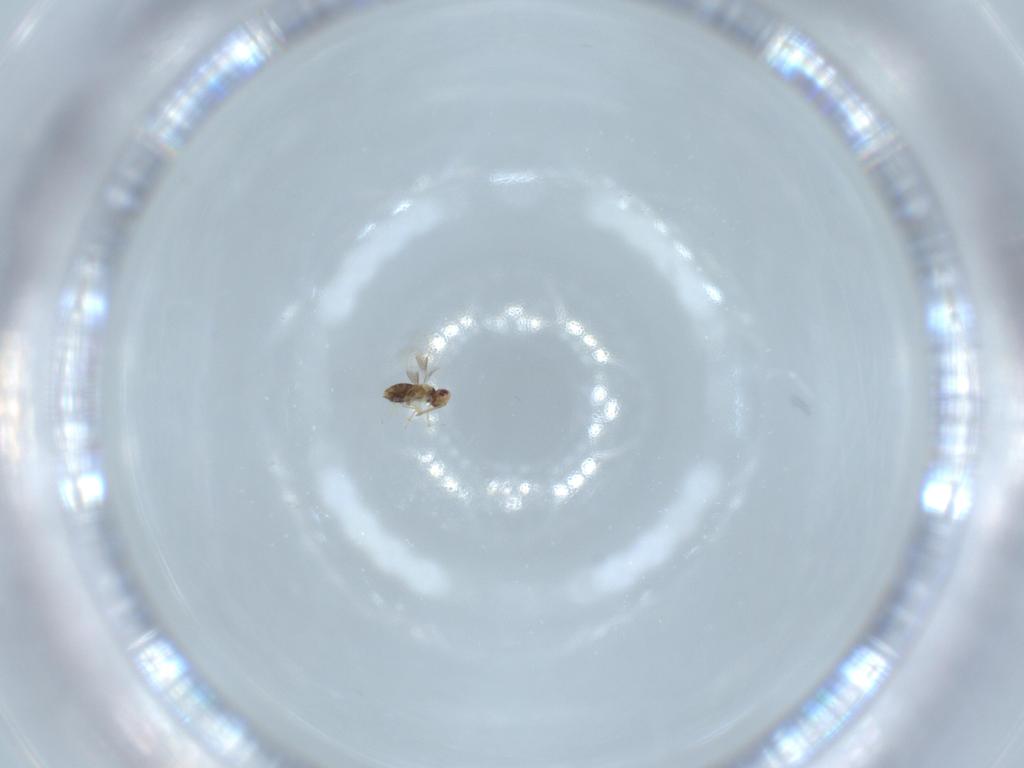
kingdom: Animalia
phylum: Arthropoda
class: Insecta
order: Hymenoptera
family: Aphelinidae
